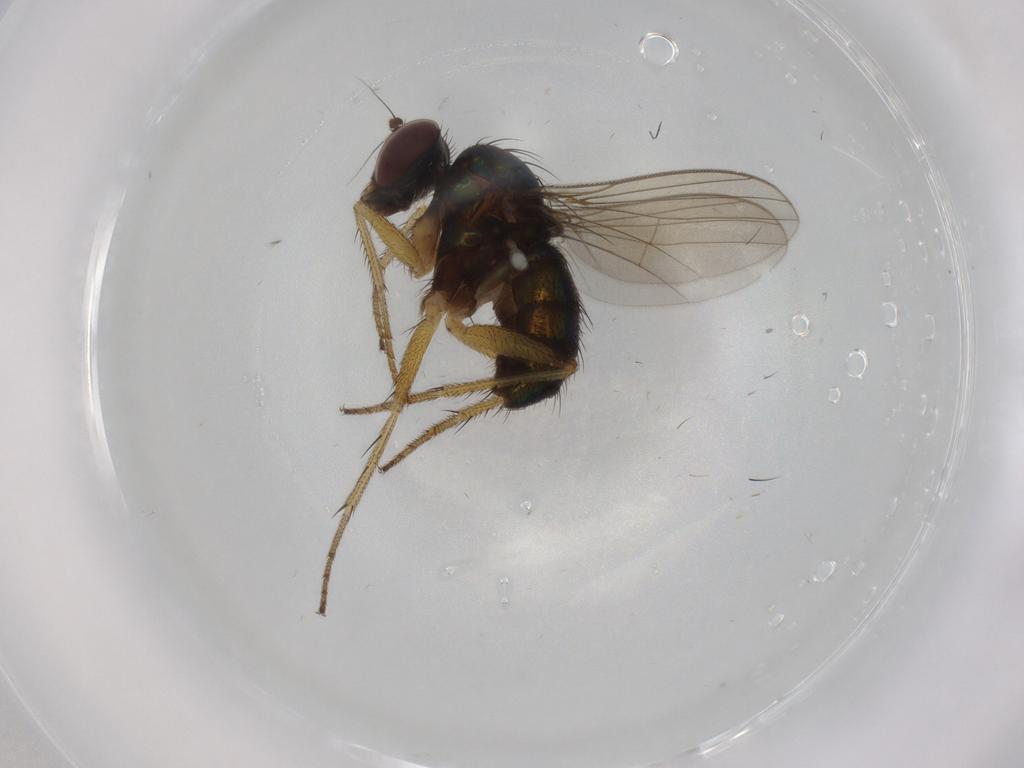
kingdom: Animalia
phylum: Arthropoda
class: Insecta
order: Diptera
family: Dolichopodidae
